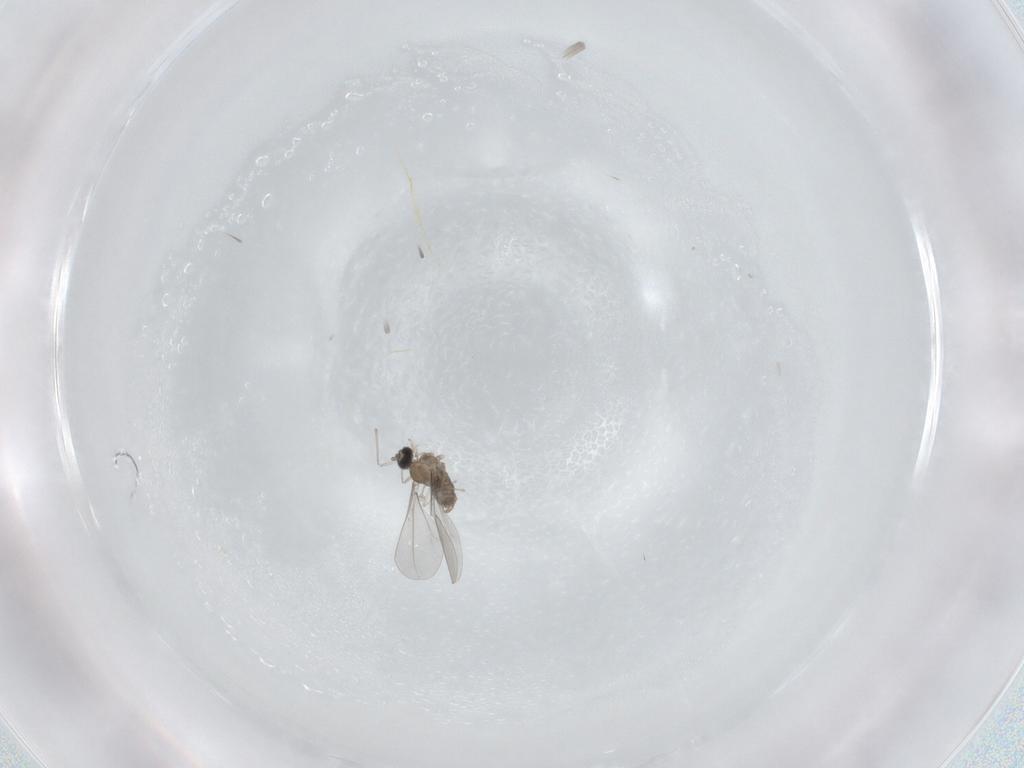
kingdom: Animalia
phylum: Arthropoda
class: Insecta
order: Diptera
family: Cecidomyiidae
